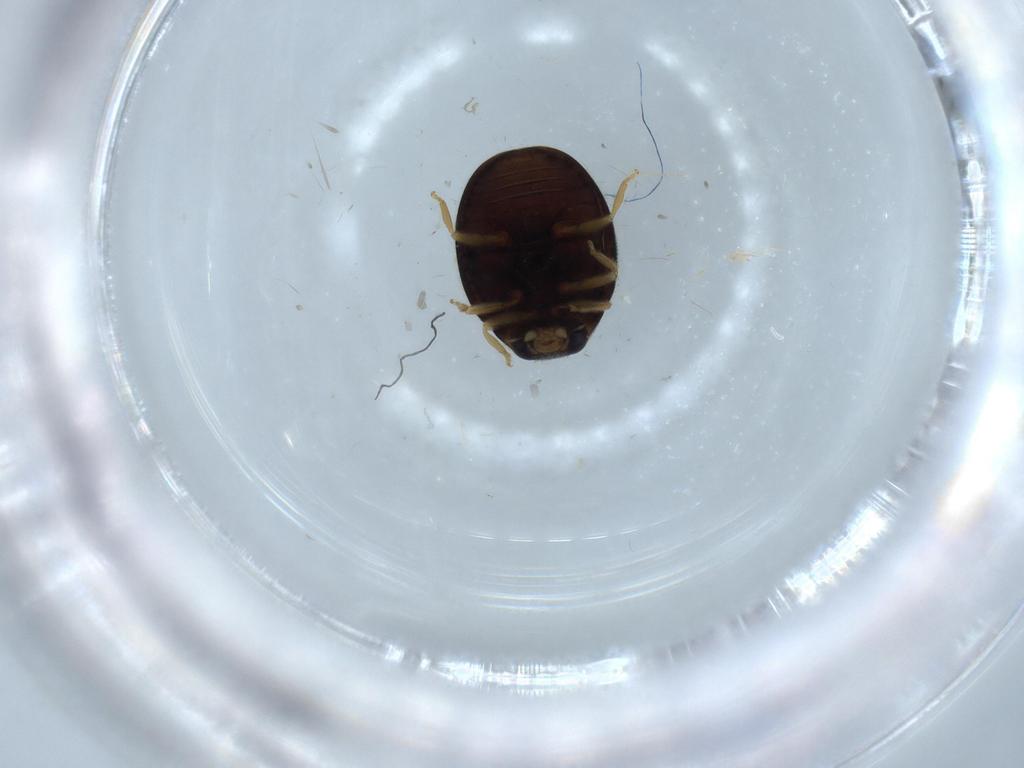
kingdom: Animalia
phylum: Arthropoda
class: Insecta
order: Coleoptera
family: Coccinellidae
